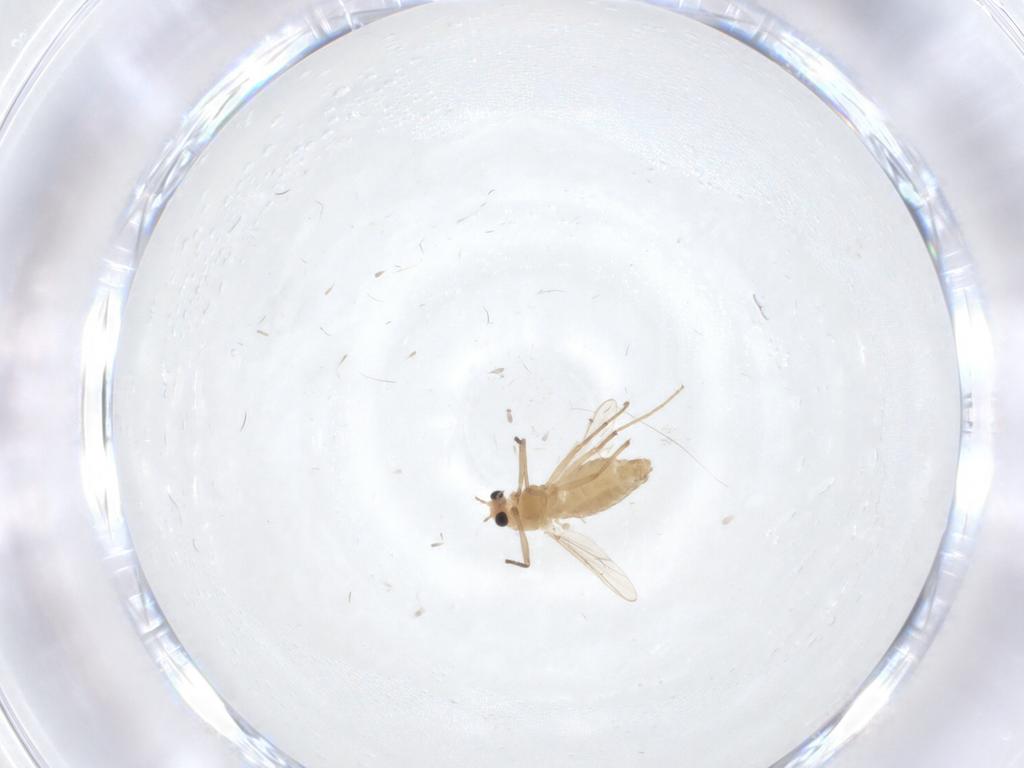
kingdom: Animalia
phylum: Arthropoda
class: Insecta
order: Diptera
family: Chironomidae
